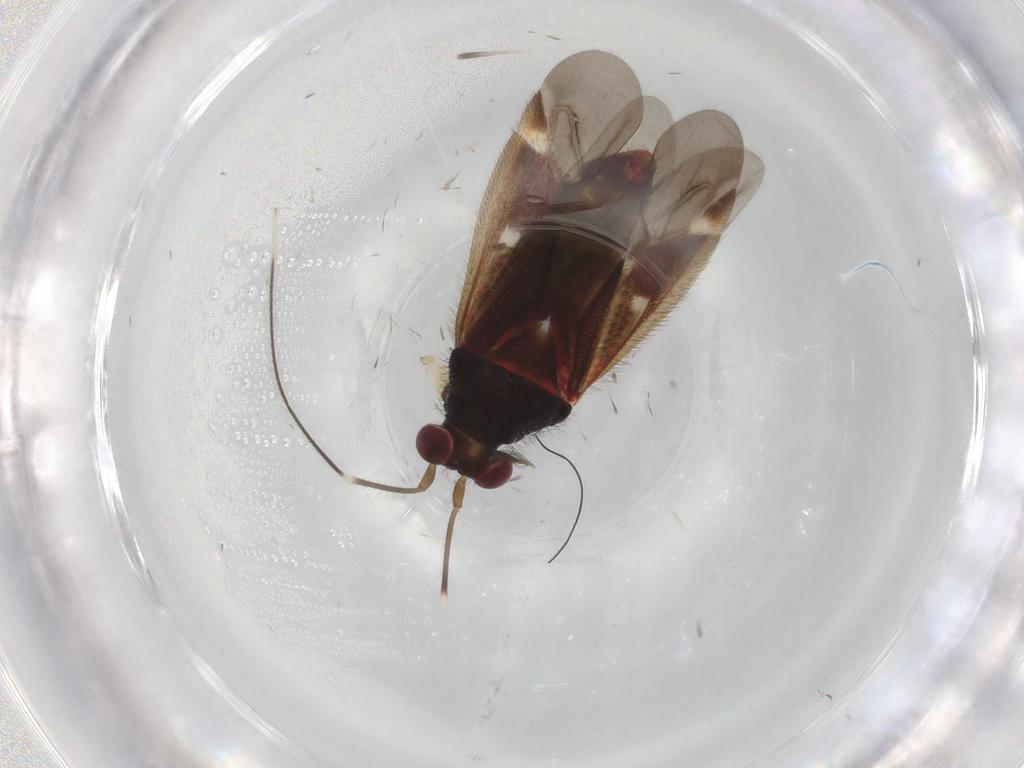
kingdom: Animalia
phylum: Arthropoda
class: Insecta
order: Hemiptera
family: Miridae
